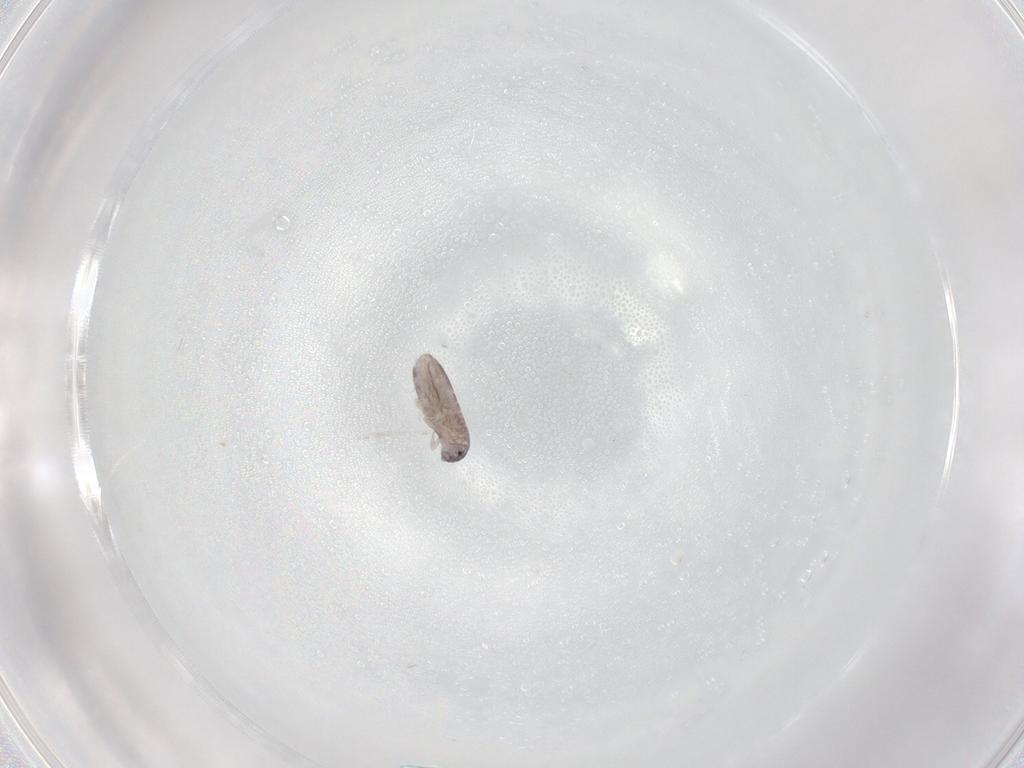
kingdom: Animalia
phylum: Arthropoda
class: Collembola
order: Entomobryomorpha
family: Entomobryidae
